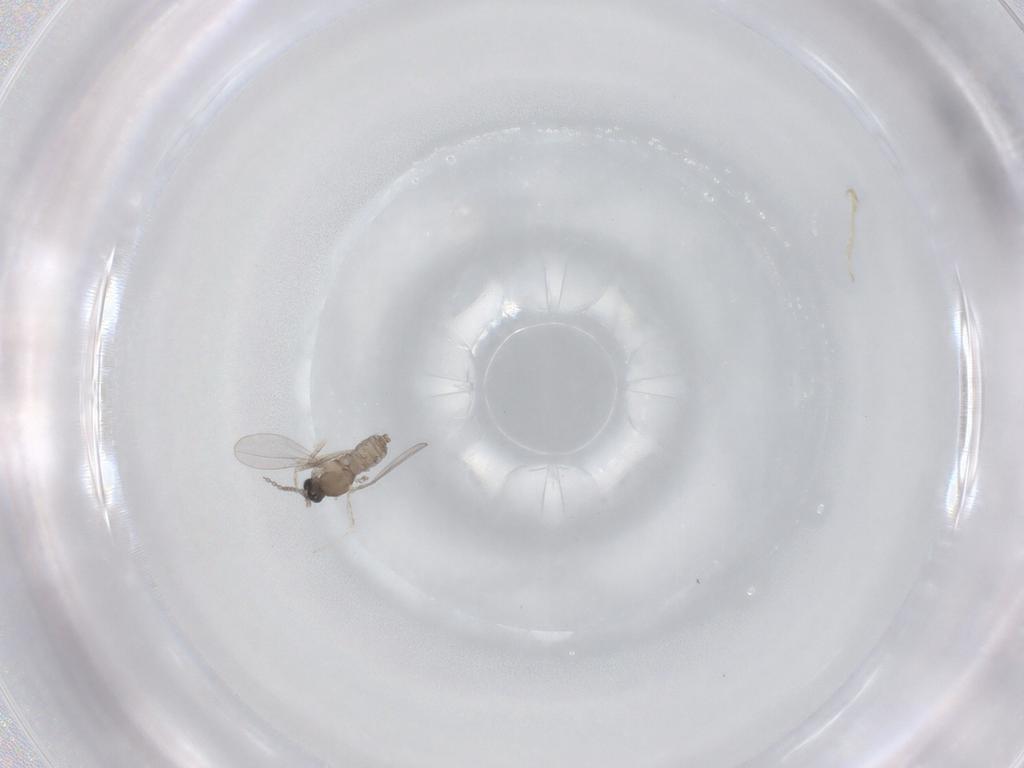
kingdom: Animalia
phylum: Arthropoda
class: Insecta
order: Diptera
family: Cecidomyiidae
